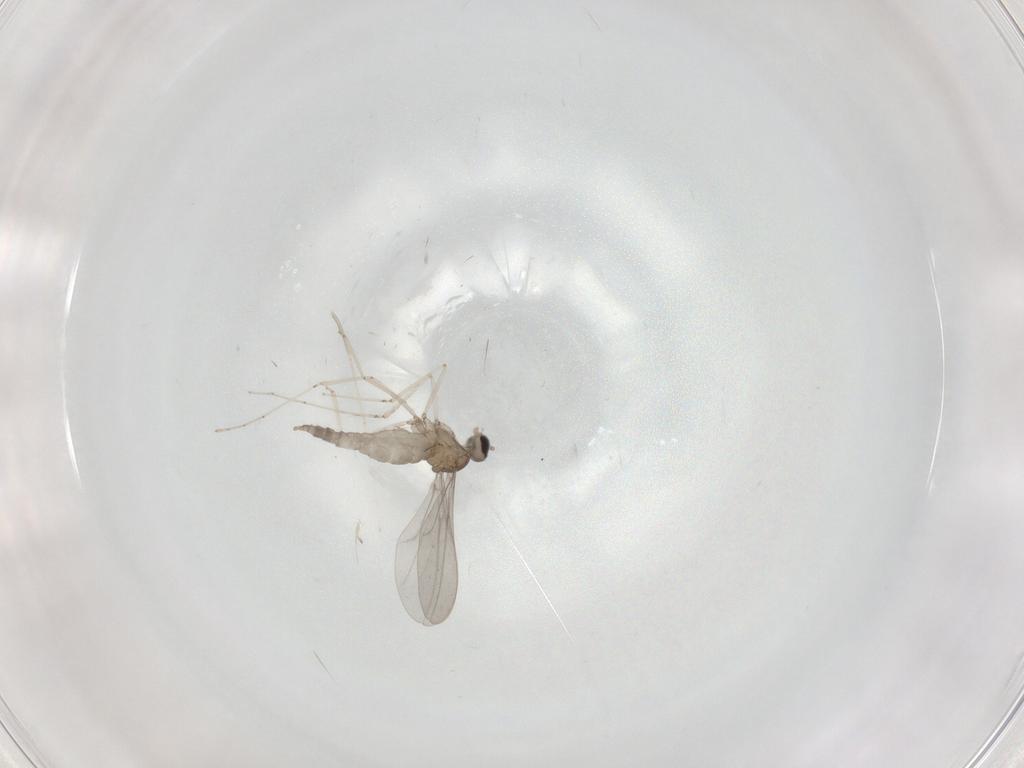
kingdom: Animalia
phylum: Arthropoda
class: Insecta
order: Diptera
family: Cecidomyiidae
